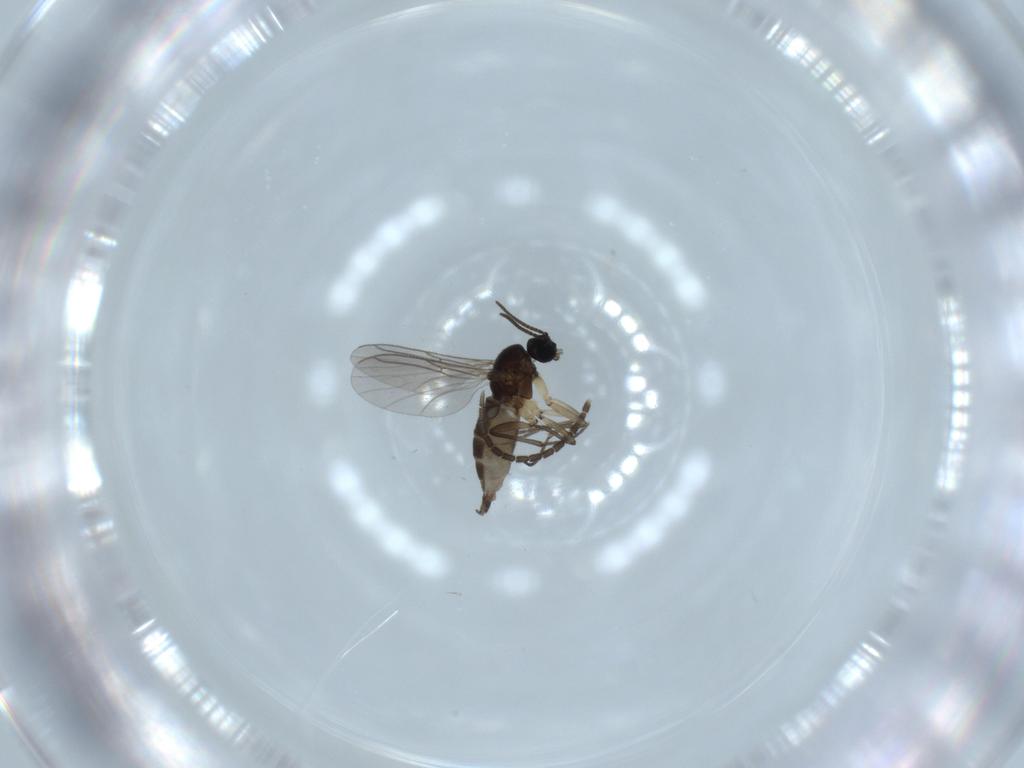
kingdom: Animalia
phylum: Arthropoda
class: Insecta
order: Diptera
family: Sciaridae
